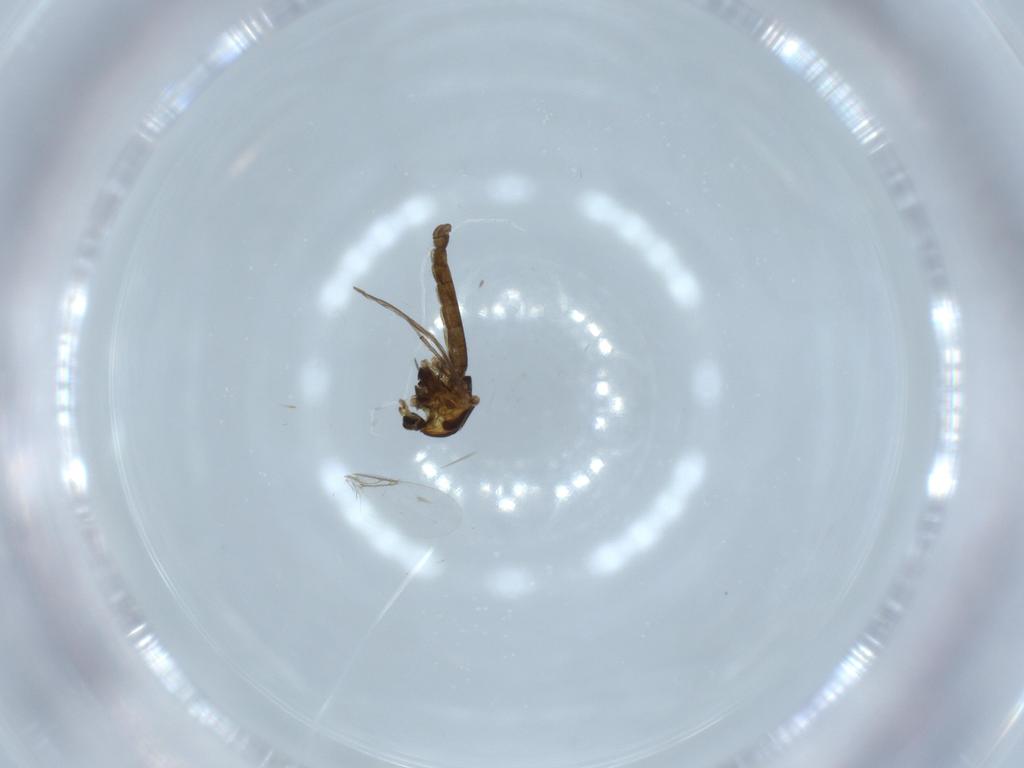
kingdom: Animalia
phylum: Arthropoda
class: Insecta
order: Diptera
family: Chironomidae
